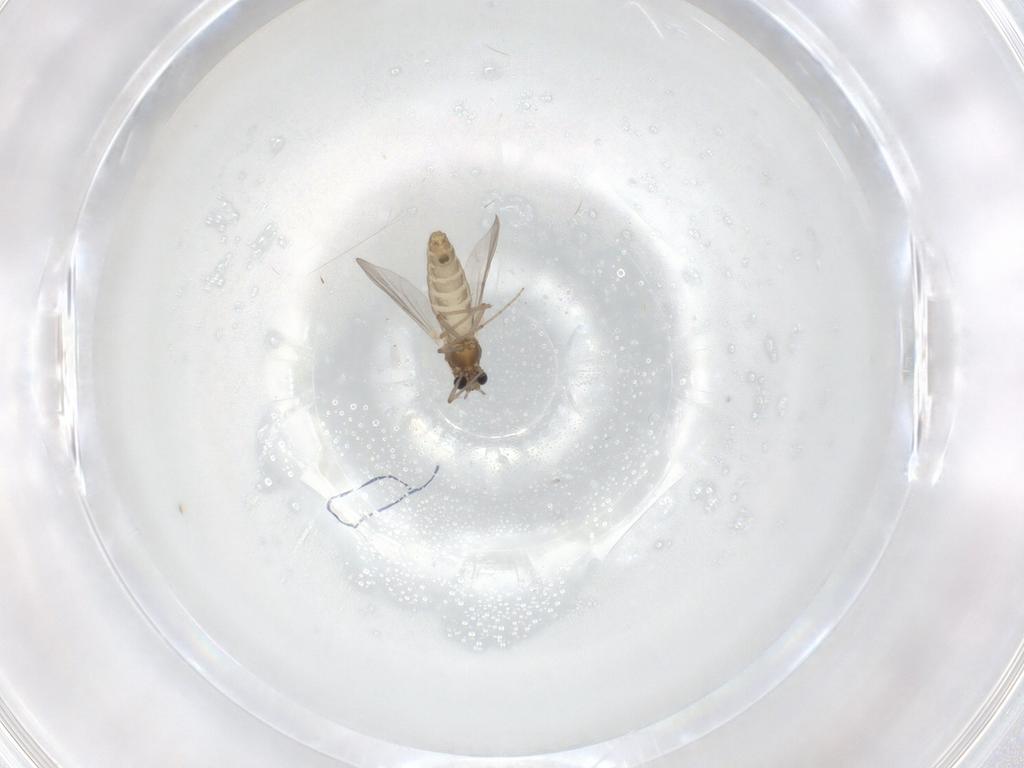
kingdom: Animalia
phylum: Arthropoda
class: Insecta
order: Diptera
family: Chironomidae
